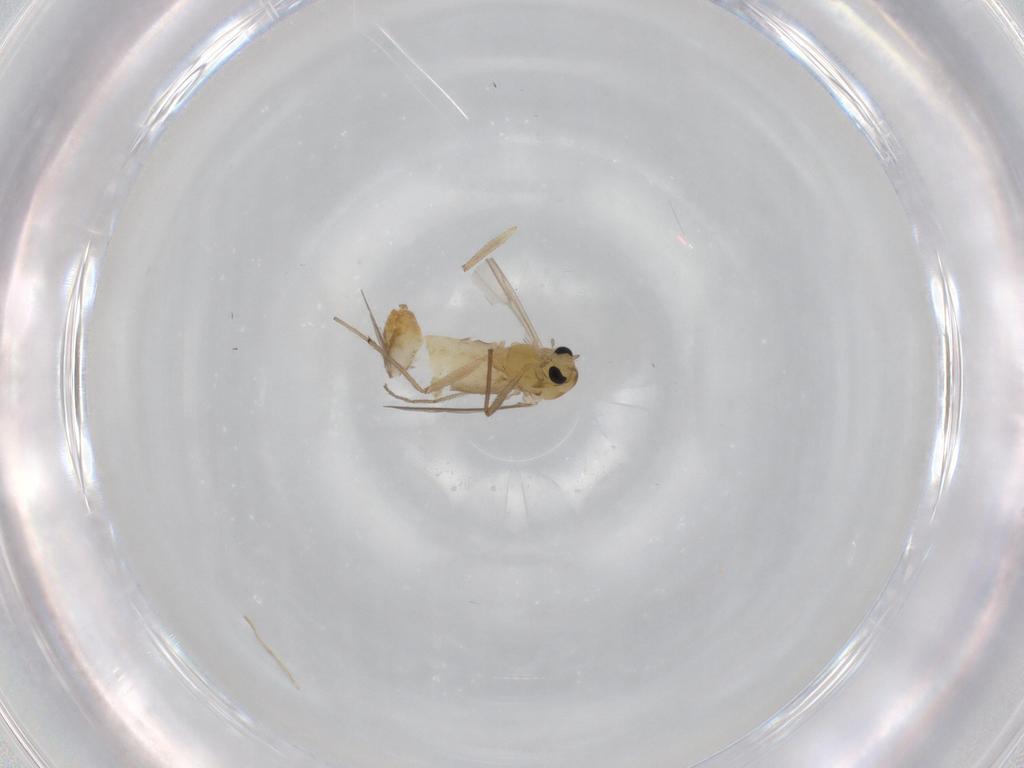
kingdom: Animalia
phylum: Arthropoda
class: Insecta
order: Diptera
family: Chironomidae
